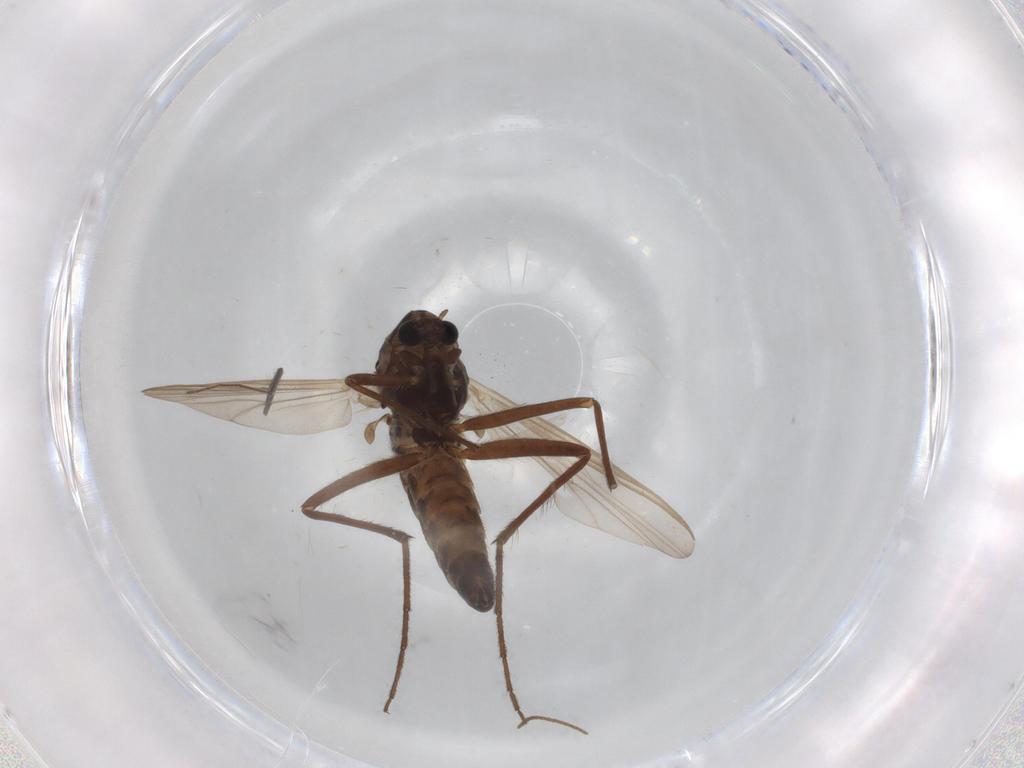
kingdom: Animalia
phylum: Arthropoda
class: Insecta
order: Diptera
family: Chironomidae
